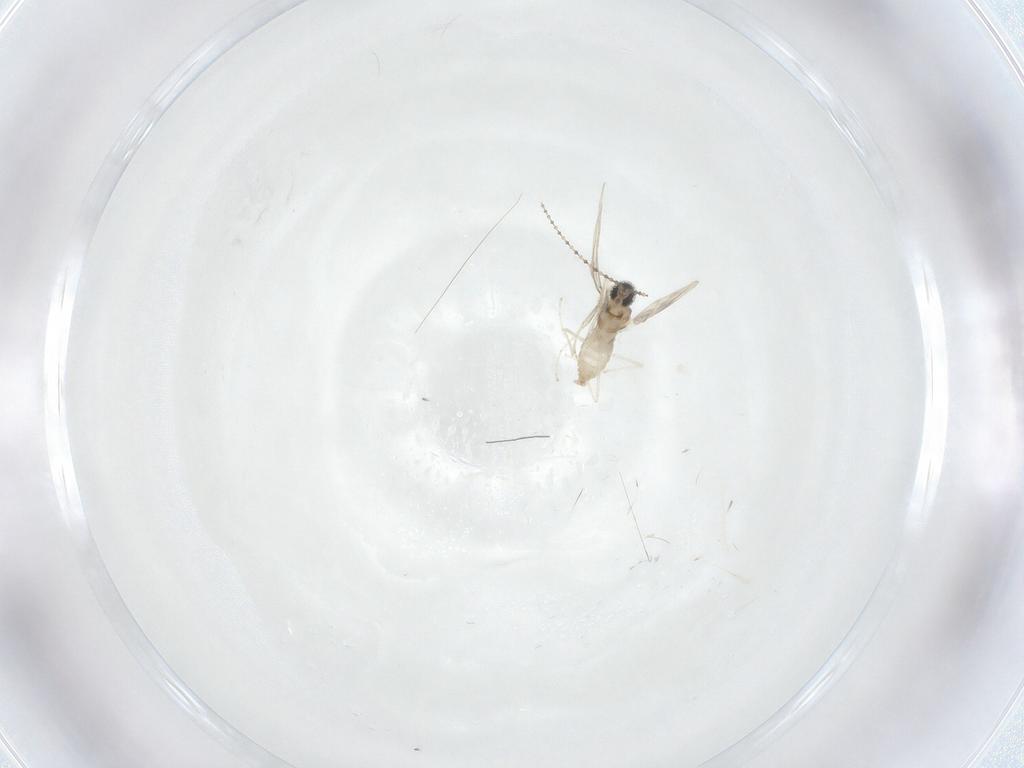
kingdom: Animalia
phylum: Arthropoda
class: Insecta
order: Diptera
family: Cecidomyiidae
